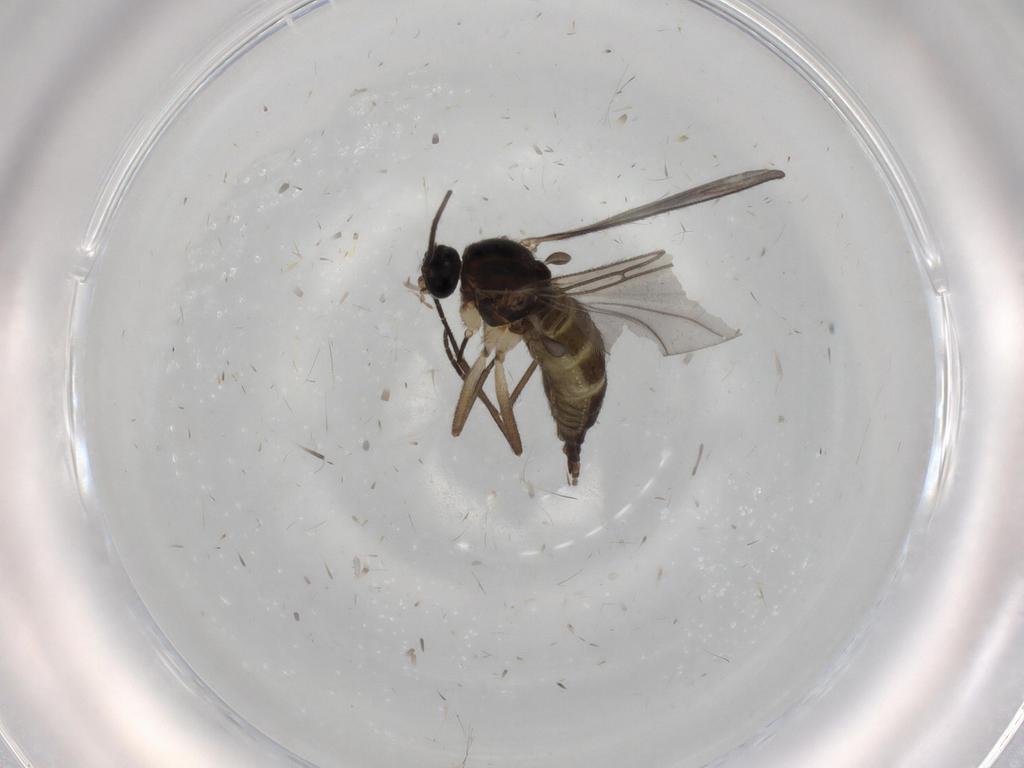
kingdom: Animalia
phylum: Arthropoda
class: Insecta
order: Diptera
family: Sciaridae
